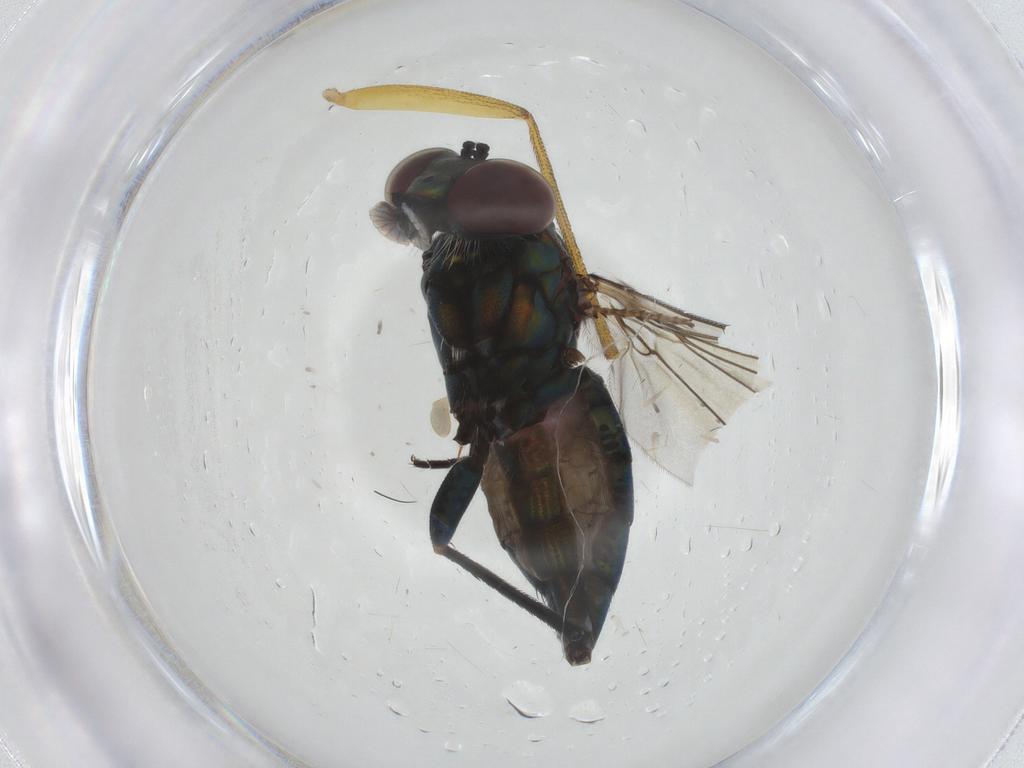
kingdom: Animalia
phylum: Arthropoda
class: Insecta
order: Diptera
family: Dolichopodidae
